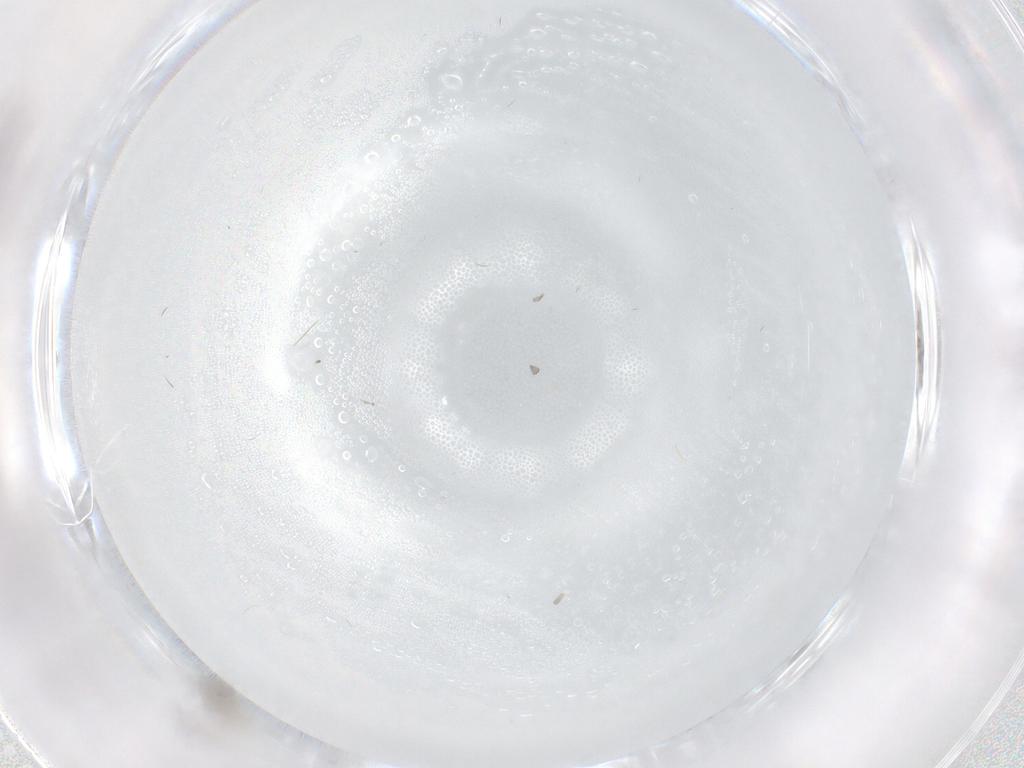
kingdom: Animalia
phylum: Arthropoda
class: Insecta
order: Diptera
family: Cecidomyiidae
